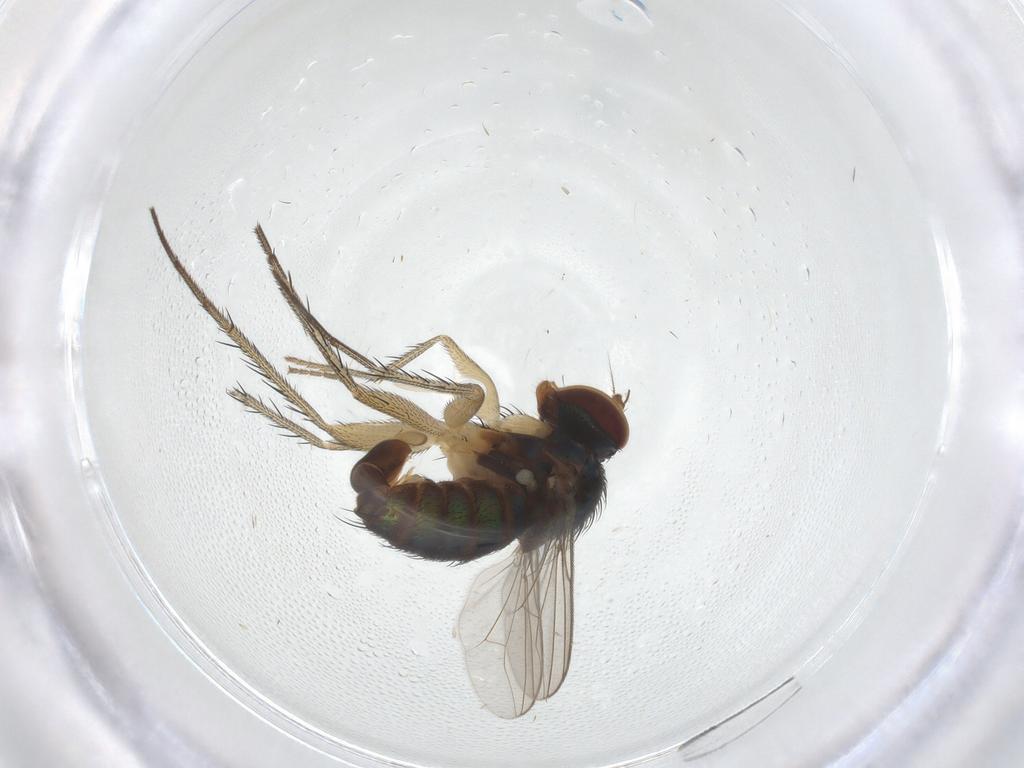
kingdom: Animalia
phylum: Arthropoda
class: Insecta
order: Diptera
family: Dolichopodidae
